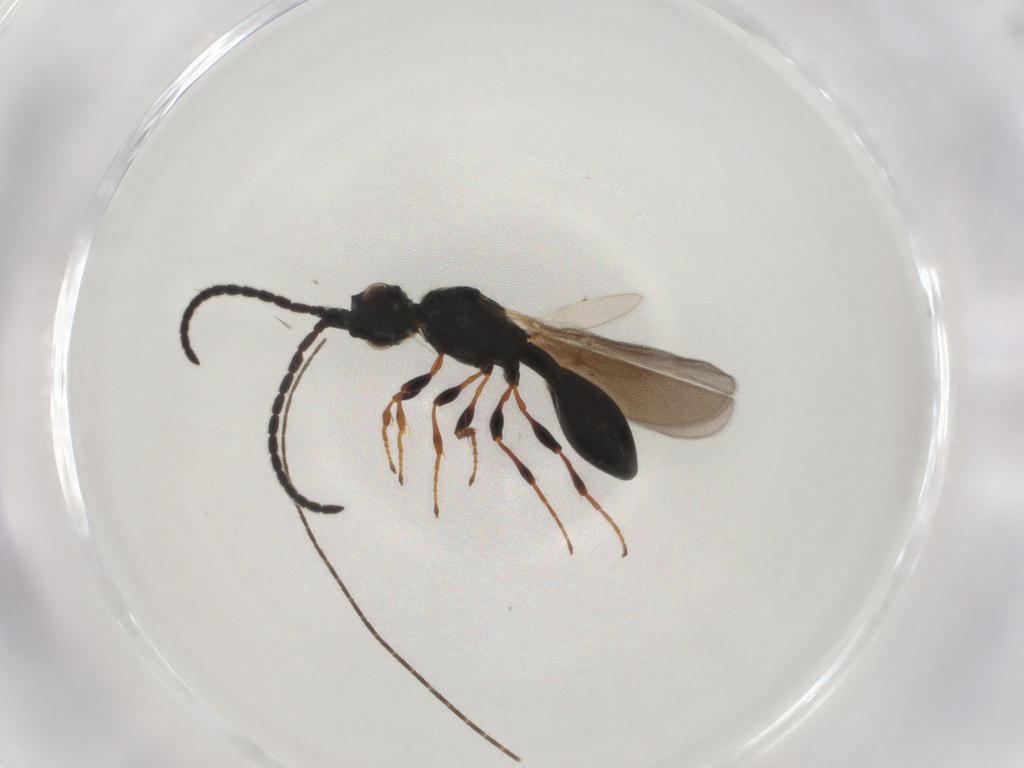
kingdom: Animalia
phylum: Arthropoda
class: Insecta
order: Hymenoptera
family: Diapriidae
